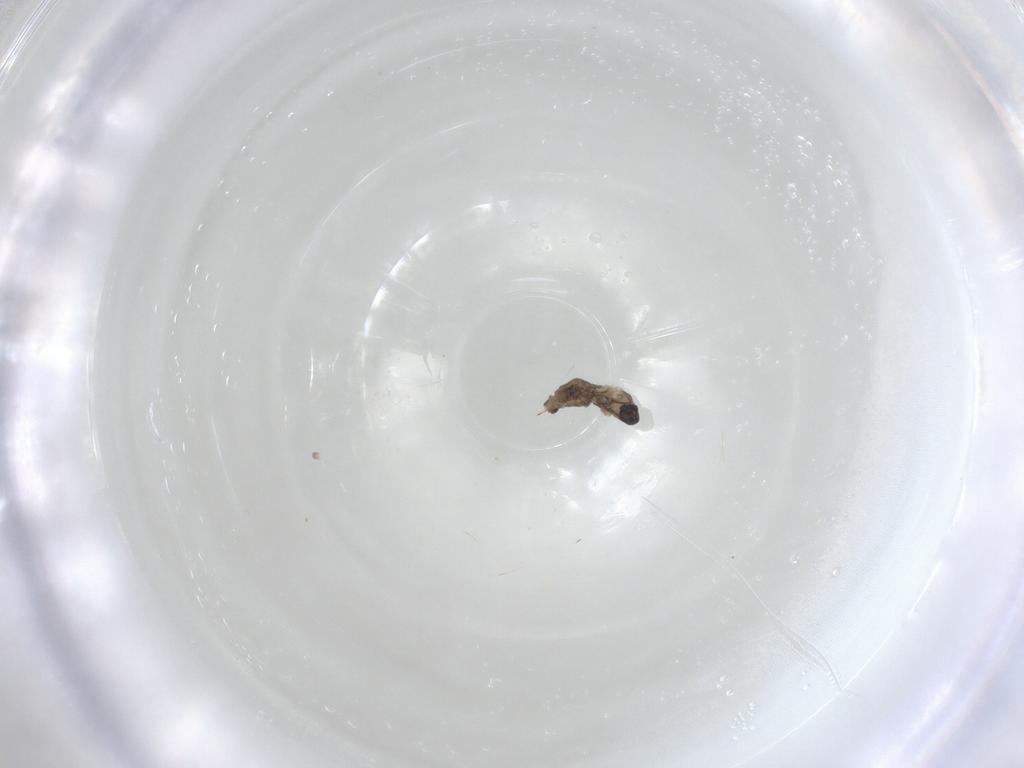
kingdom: Animalia
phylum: Arthropoda
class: Insecta
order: Diptera
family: Cecidomyiidae
